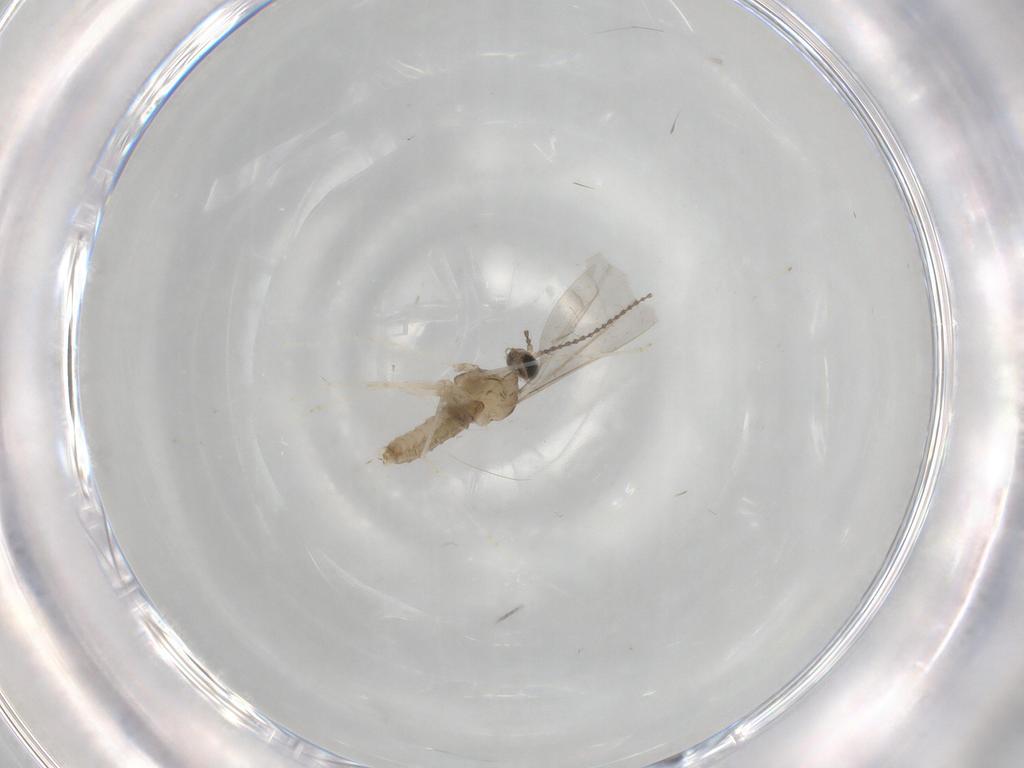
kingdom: Animalia
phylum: Arthropoda
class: Insecta
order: Diptera
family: Cecidomyiidae
